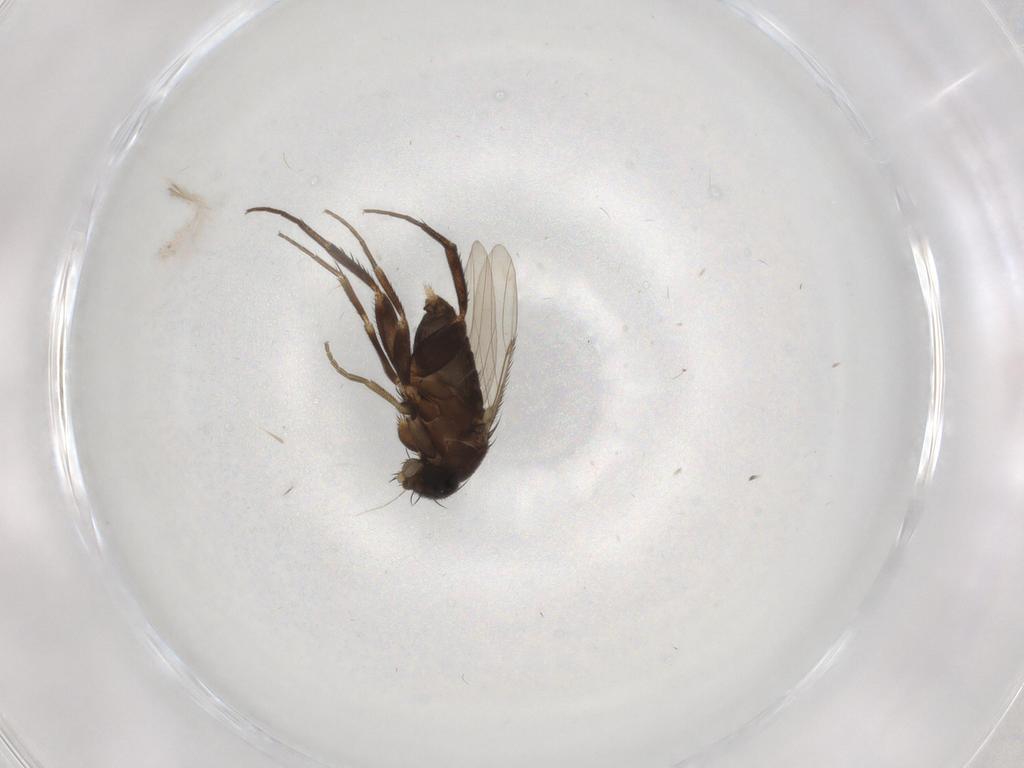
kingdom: Animalia
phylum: Arthropoda
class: Insecta
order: Diptera
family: Phoridae
